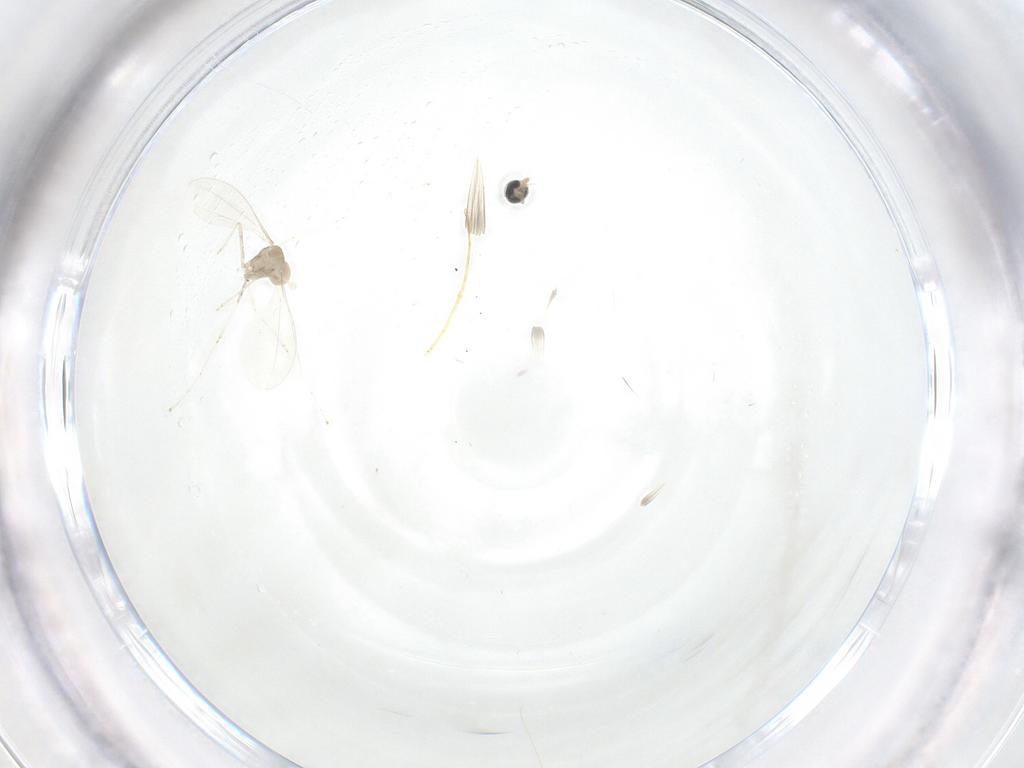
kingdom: Animalia
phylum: Arthropoda
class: Insecta
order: Diptera
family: Cecidomyiidae
